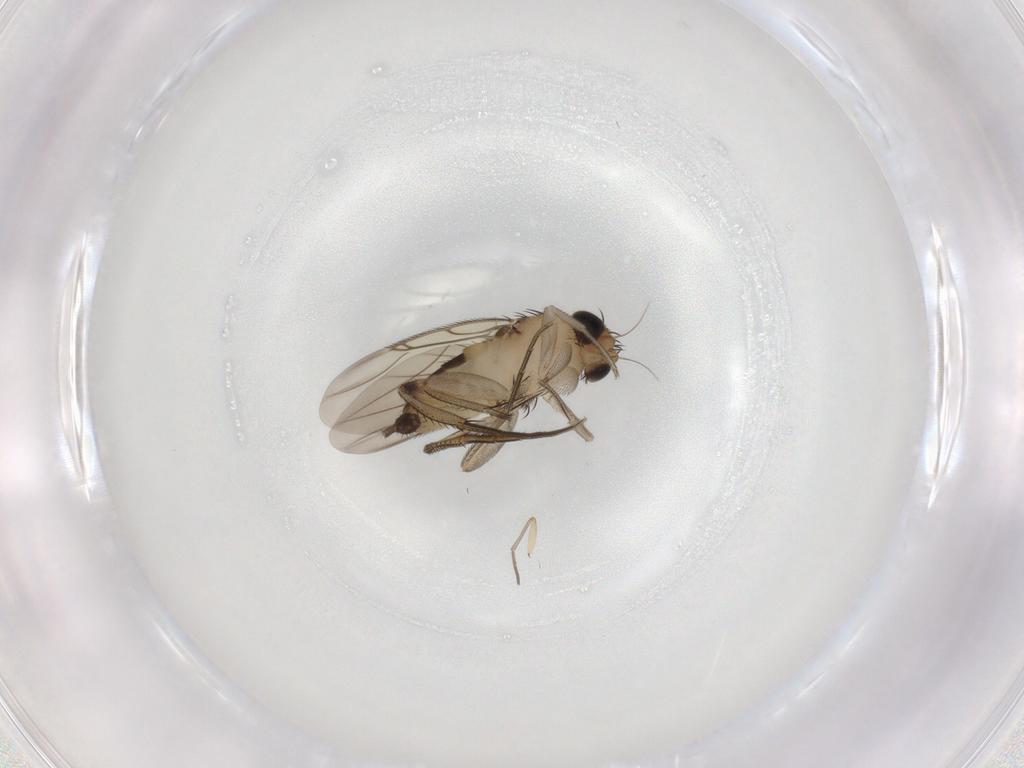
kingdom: Animalia
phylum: Arthropoda
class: Insecta
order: Diptera
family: Phoridae
